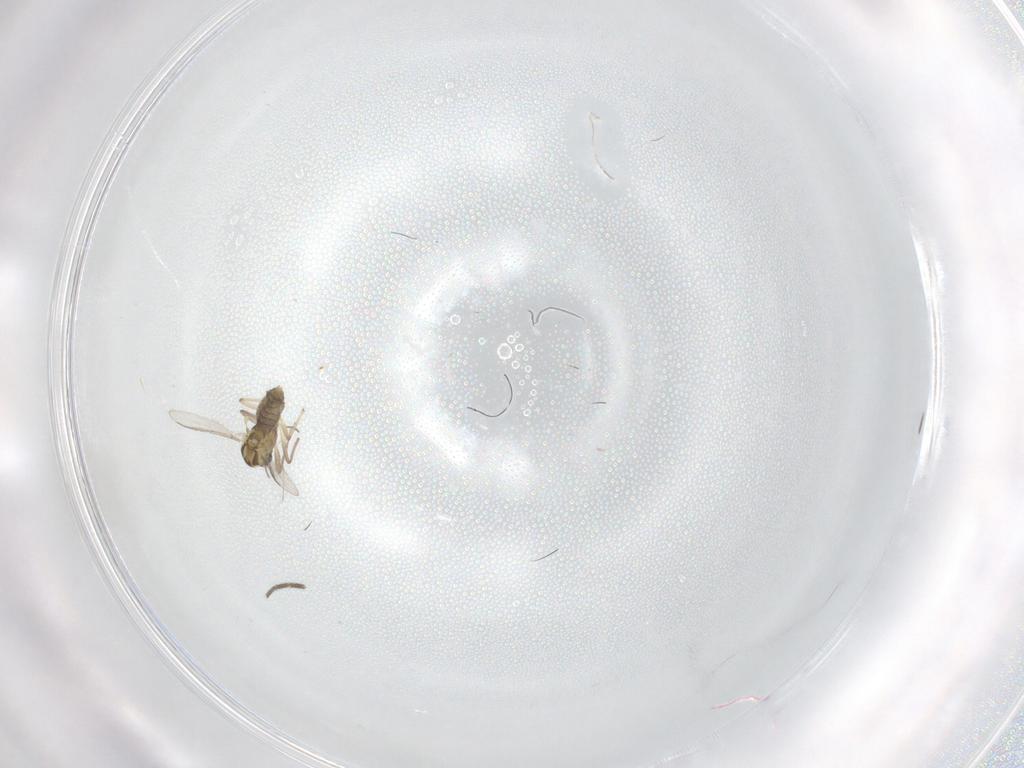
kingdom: Animalia
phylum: Arthropoda
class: Insecta
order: Diptera
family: Mycetophilidae
